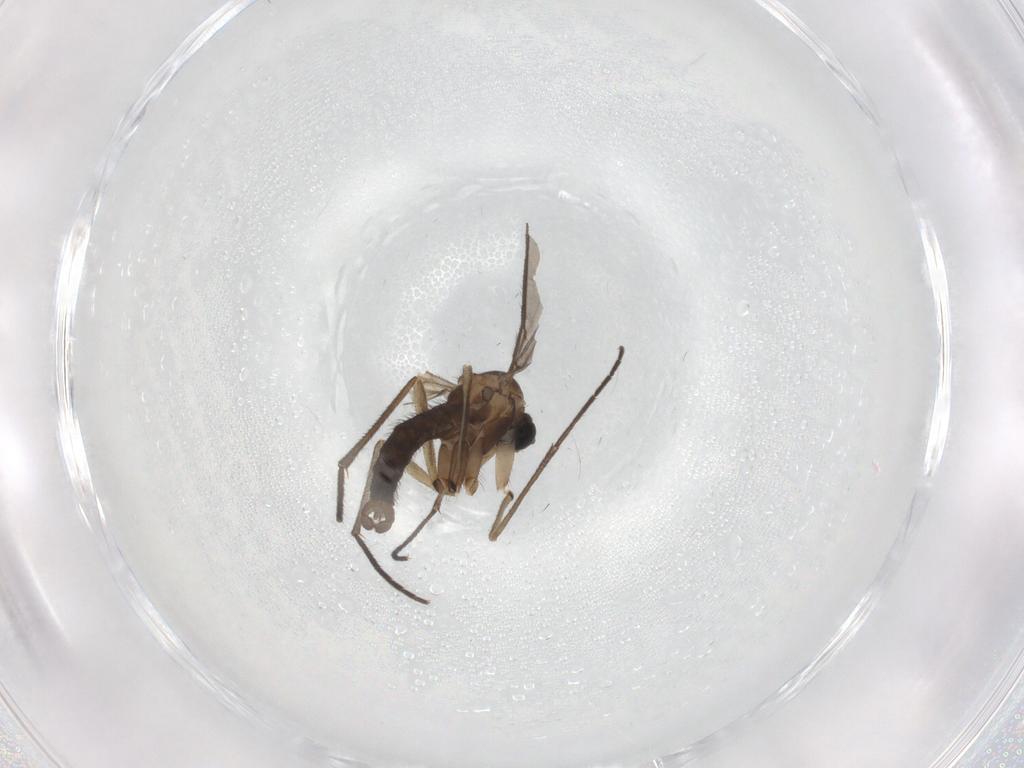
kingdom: Animalia
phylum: Arthropoda
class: Insecta
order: Diptera
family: Sciaridae
